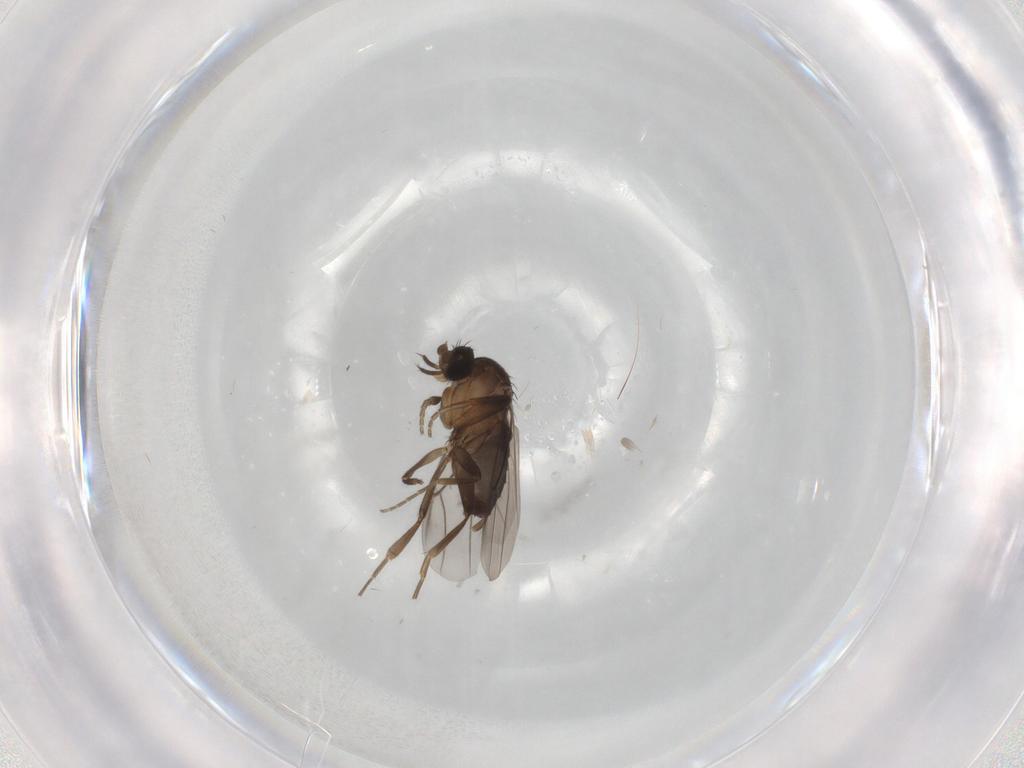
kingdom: Animalia
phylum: Arthropoda
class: Insecta
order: Diptera
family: Phoridae
